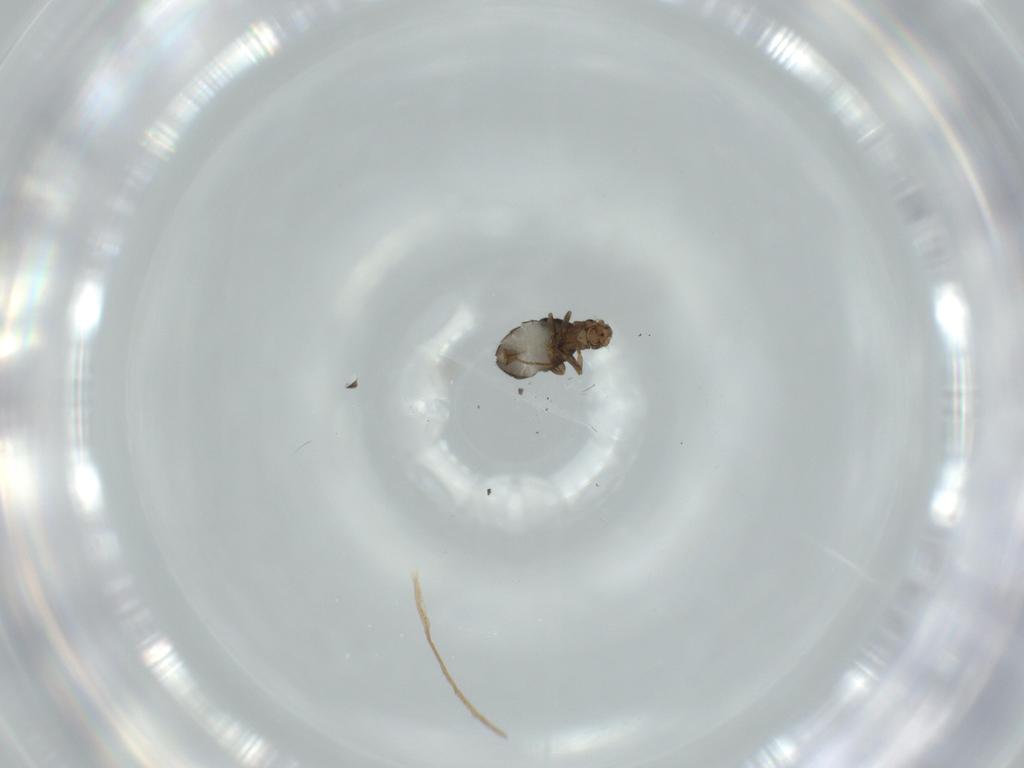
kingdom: Animalia
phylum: Arthropoda
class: Insecta
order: Diptera
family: Phoridae
